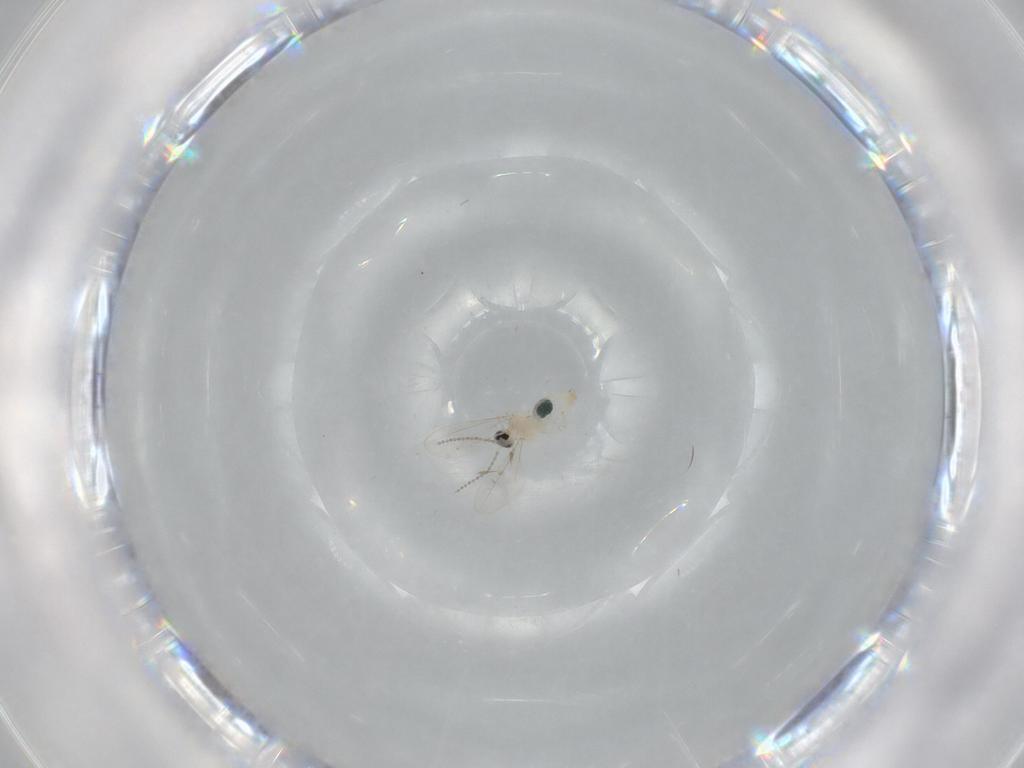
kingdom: Animalia
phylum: Arthropoda
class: Insecta
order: Diptera
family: Cecidomyiidae
